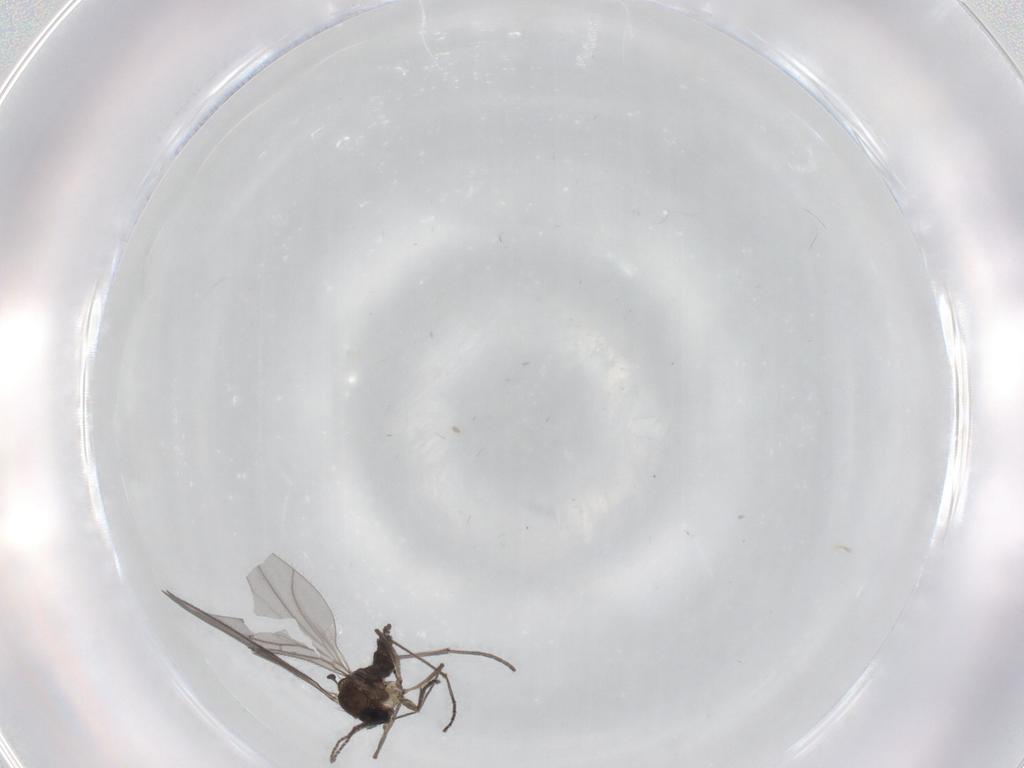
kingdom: Animalia
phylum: Arthropoda
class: Insecta
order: Diptera
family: Sciaridae
